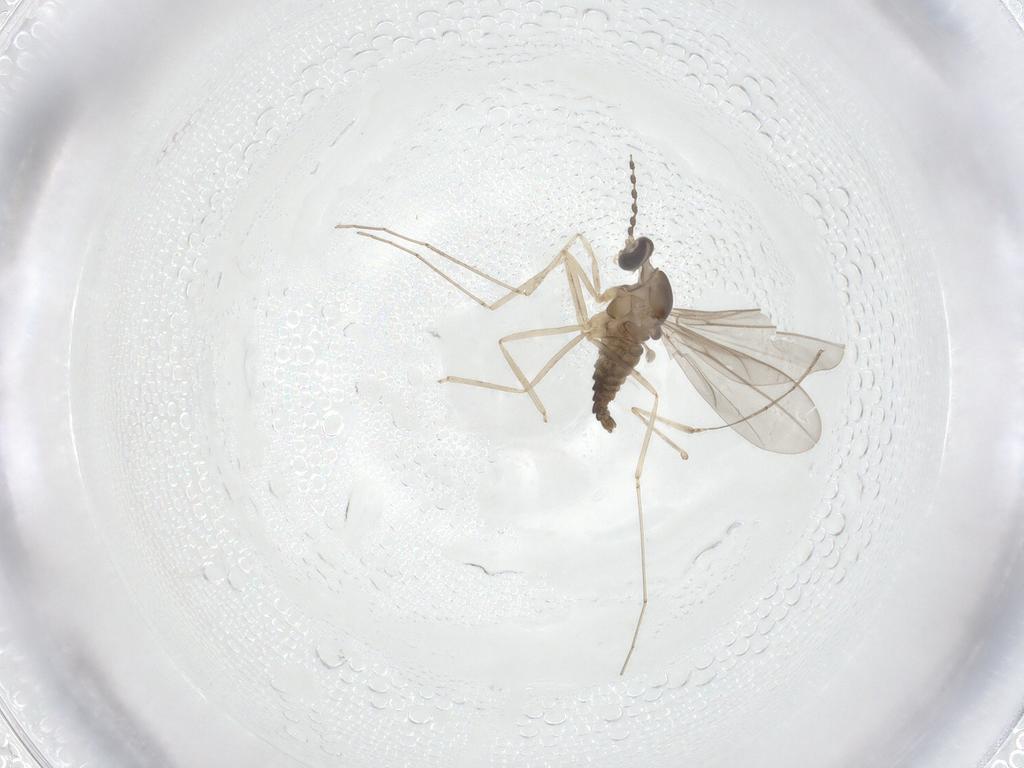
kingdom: Animalia
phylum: Arthropoda
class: Insecta
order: Diptera
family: Cecidomyiidae
